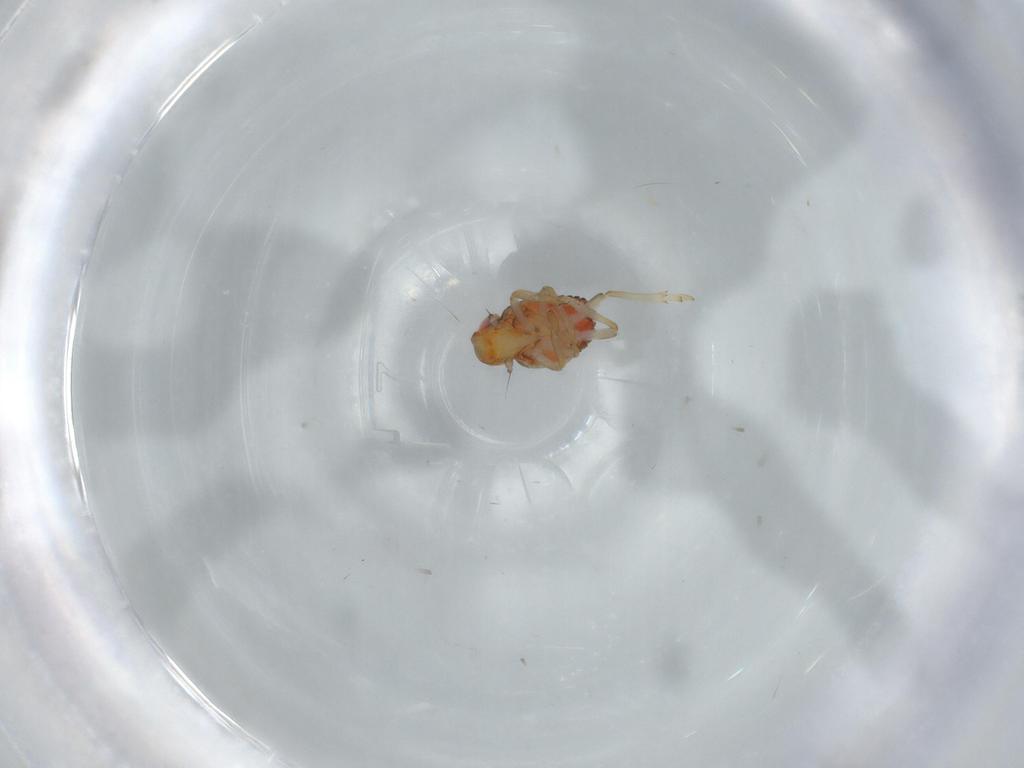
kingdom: Animalia
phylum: Arthropoda
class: Insecta
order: Hemiptera
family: Issidae
